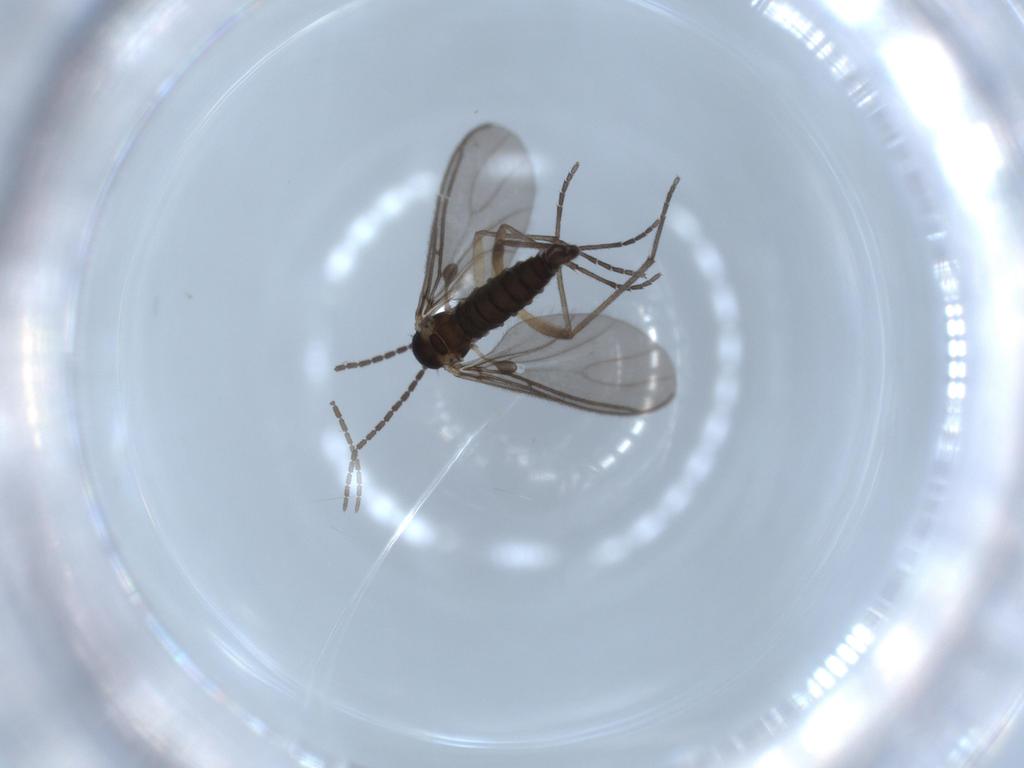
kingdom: Animalia
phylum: Arthropoda
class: Insecta
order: Diptera
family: Sciaridae
